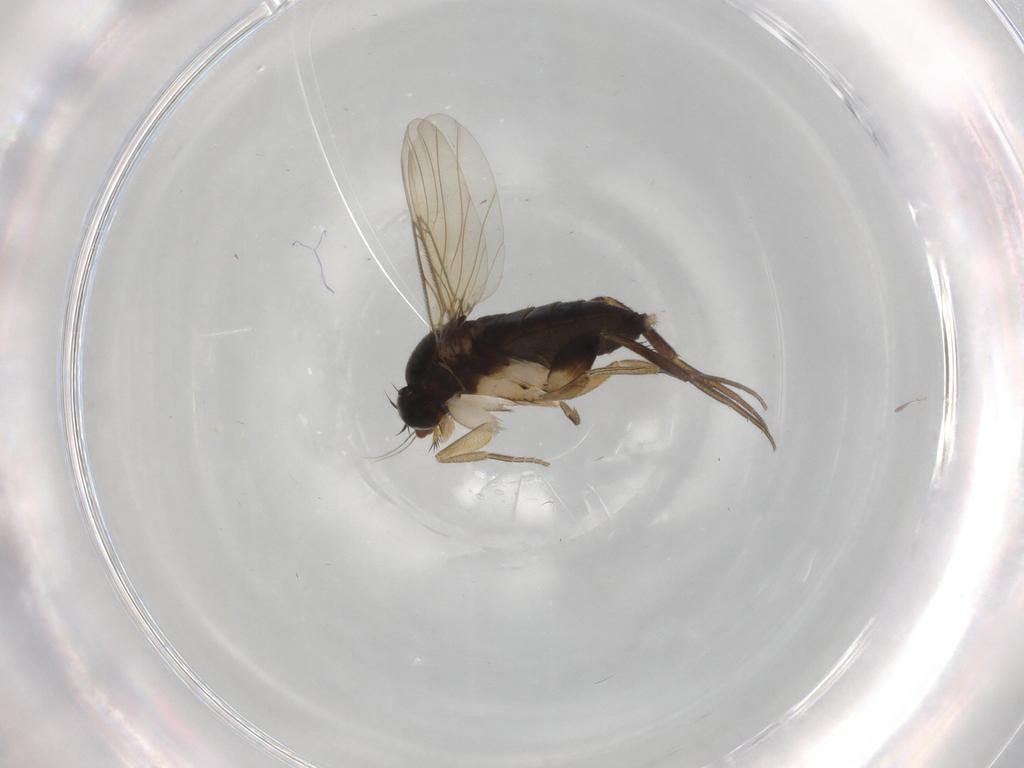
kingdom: Animalia
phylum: Arthropoda
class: Insecta
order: Diptera
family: Phoridae
